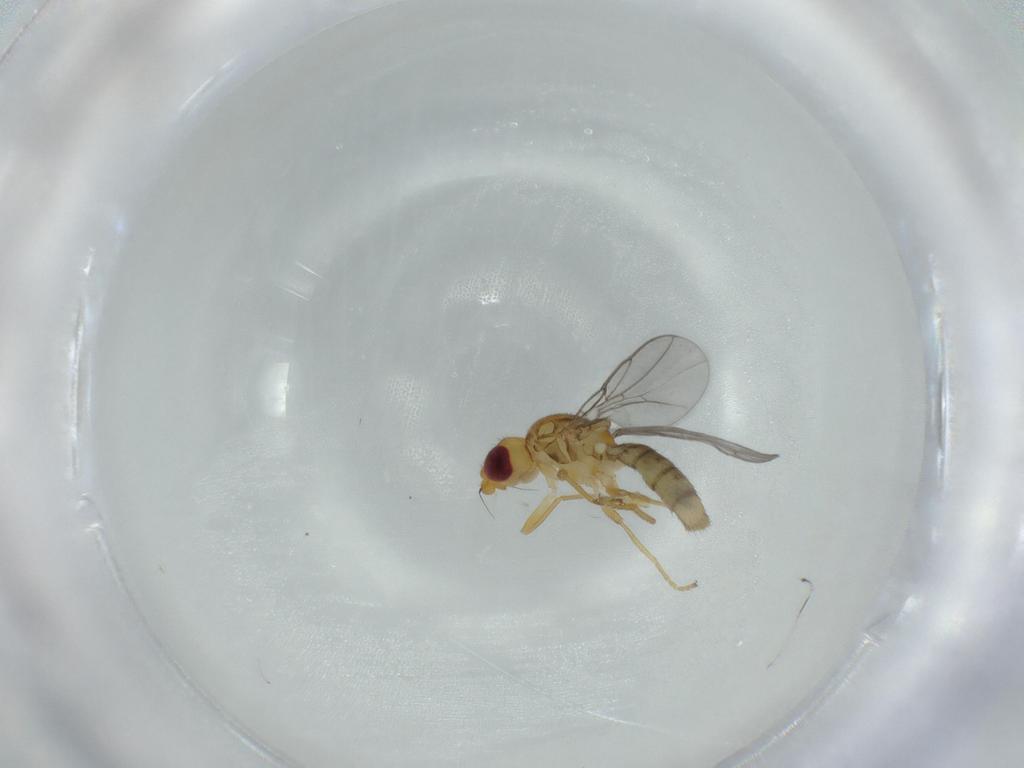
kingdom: Animalia
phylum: Arthropoda
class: Insecta
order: Diptera
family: Chloropidae
